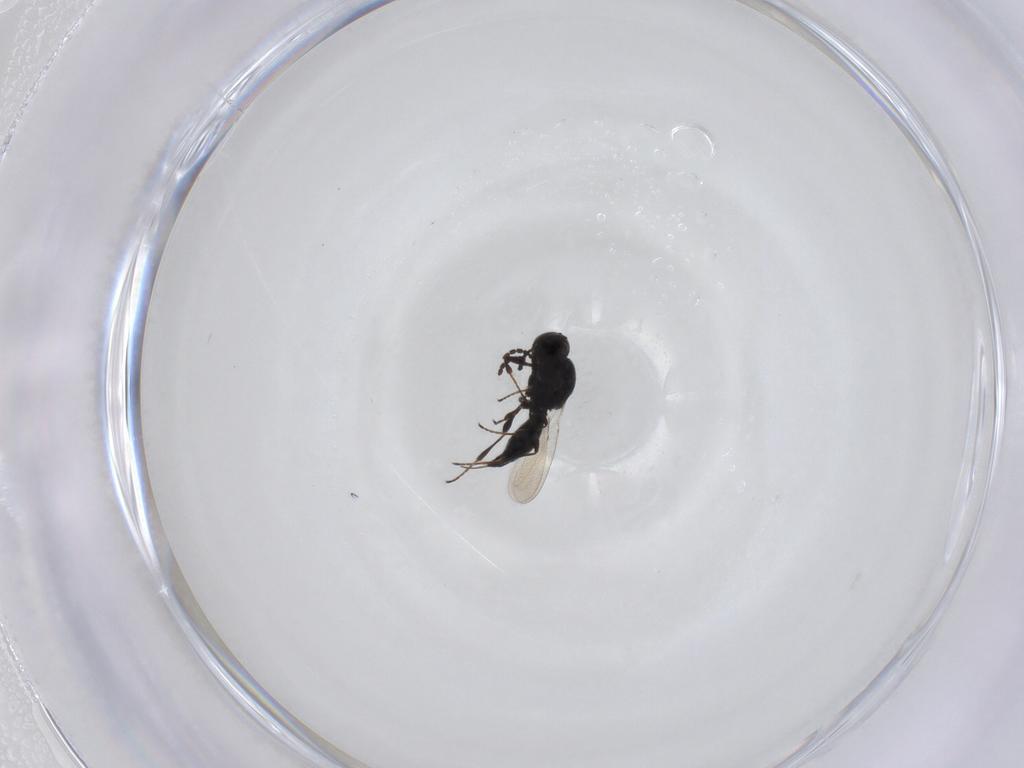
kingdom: Animalia
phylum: Arthropoda
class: Insecta
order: Diptera
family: Mythicomyiidae
